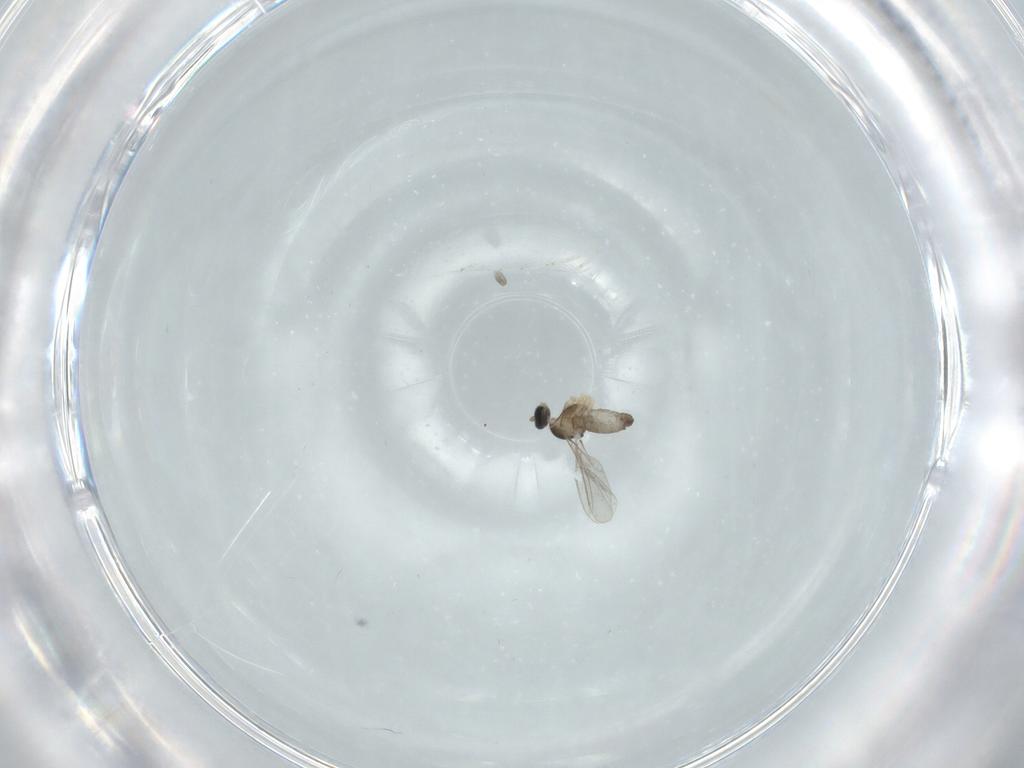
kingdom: Animalia
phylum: Arthropoda
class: Insecta
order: Diptera
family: Cecidomyiidae
